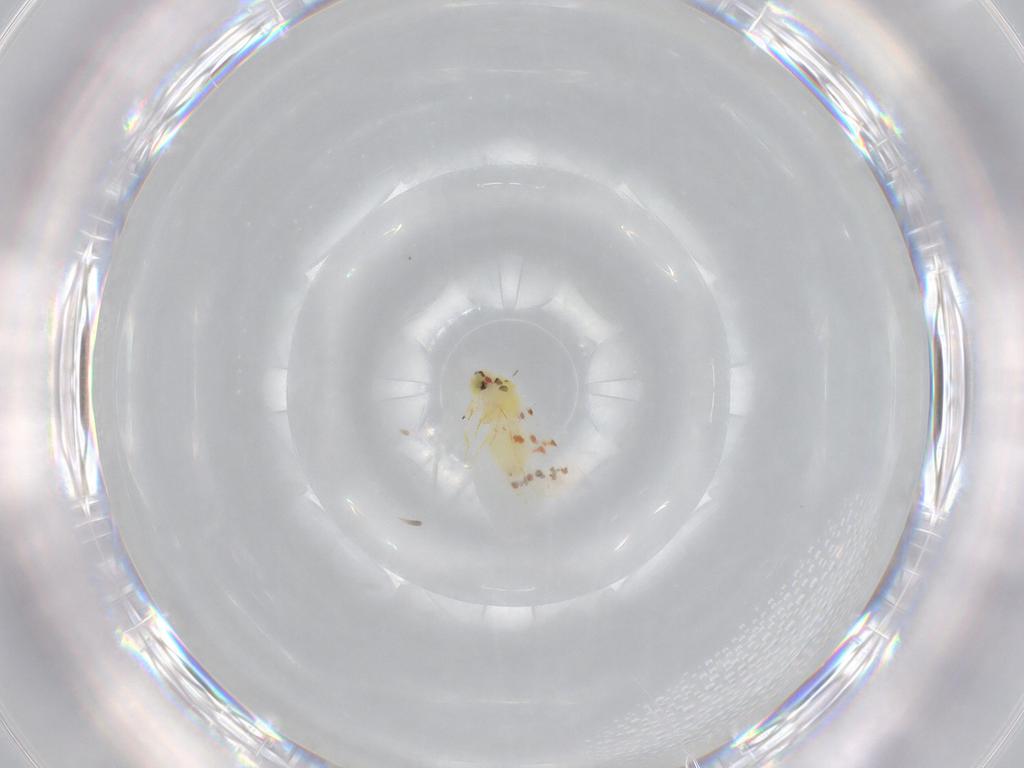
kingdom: Animalia
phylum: Arthropoda
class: Insecta
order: Hemiptera
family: Aleyrodidae
